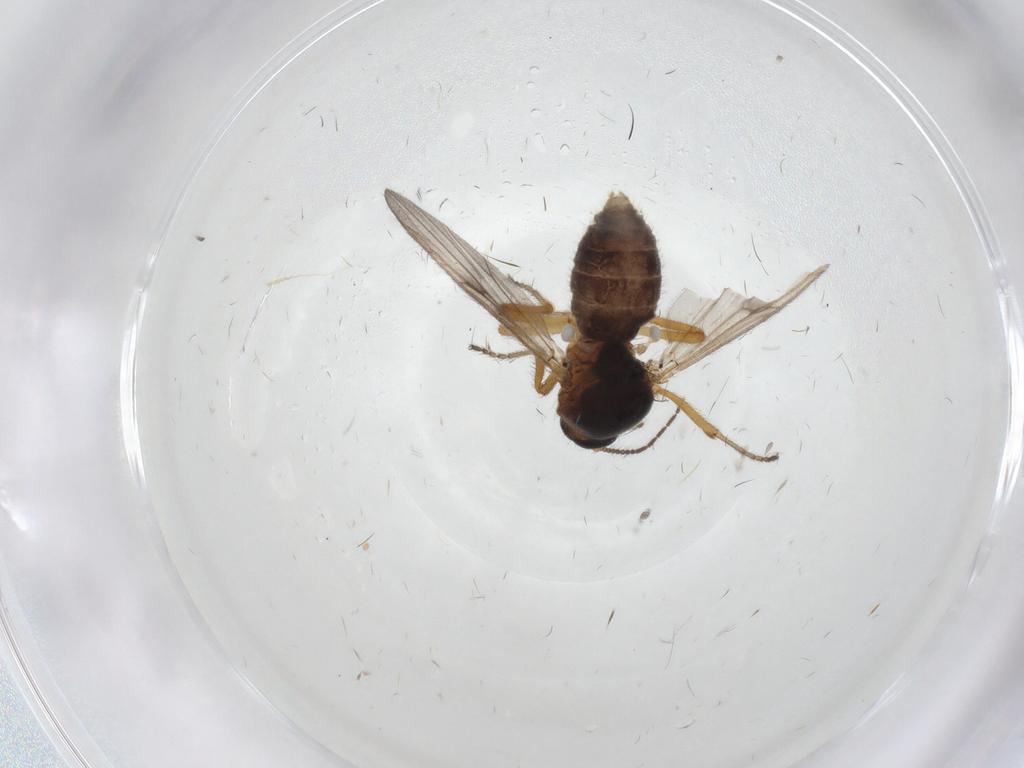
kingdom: Animalia
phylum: Arthropoda
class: Insecta
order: Diptera
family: Ceratopogonidae
